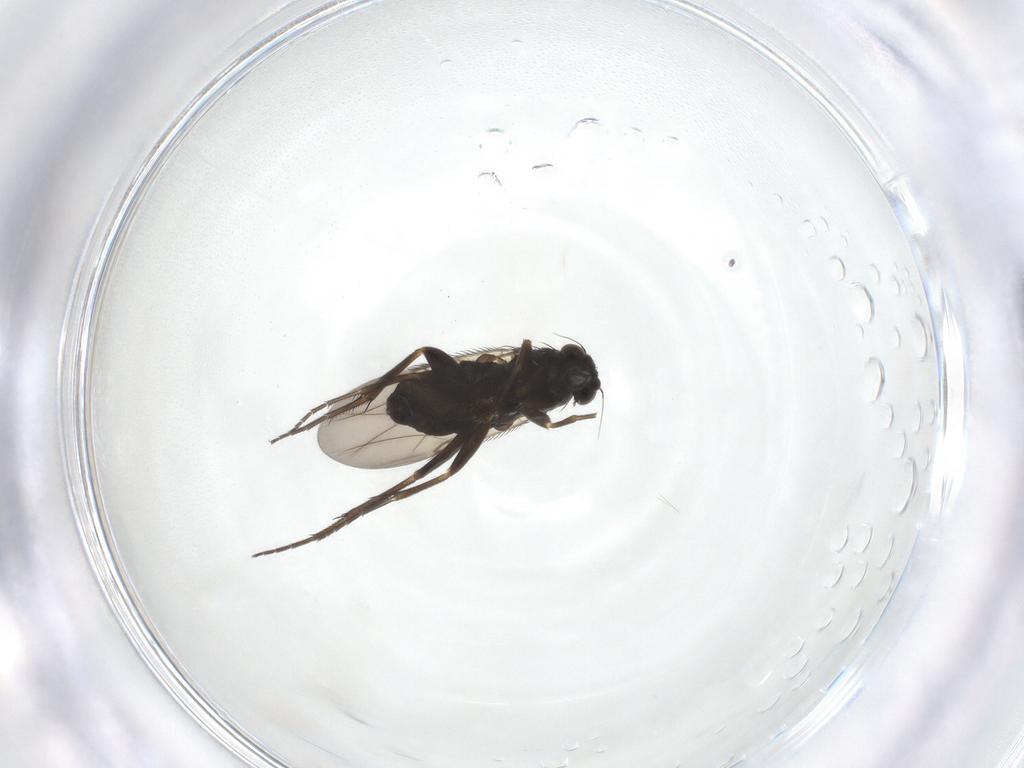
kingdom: Animalia
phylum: Arthropoda
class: Insecta
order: Diptera
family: Phoridae
